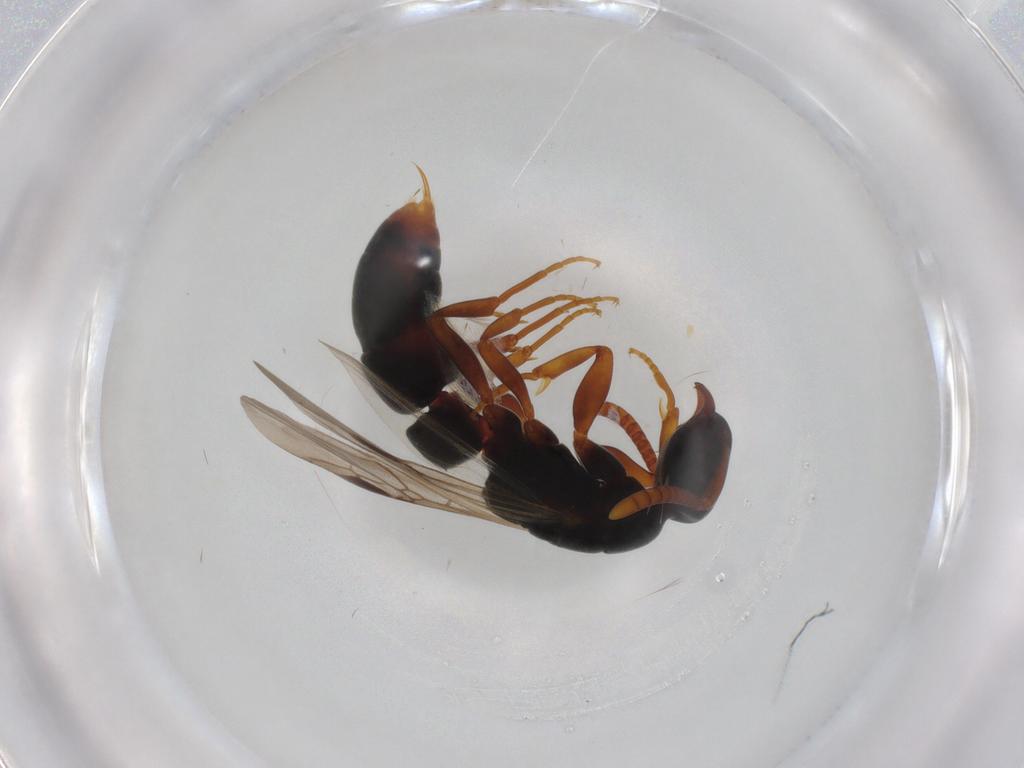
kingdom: Animalia
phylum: Arthropoda
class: Insecta
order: Hymenoptera
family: Formicidae
